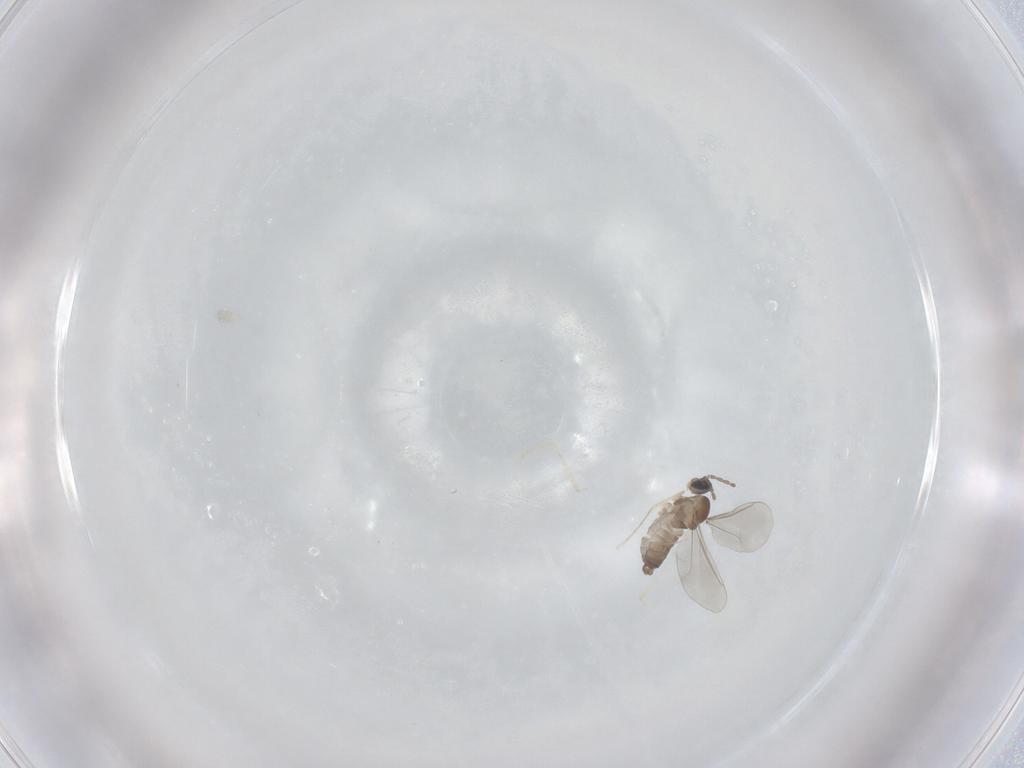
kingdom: Animalia
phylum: Arthropoda
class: Insecta
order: Diptera
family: Cecidomyiidae
